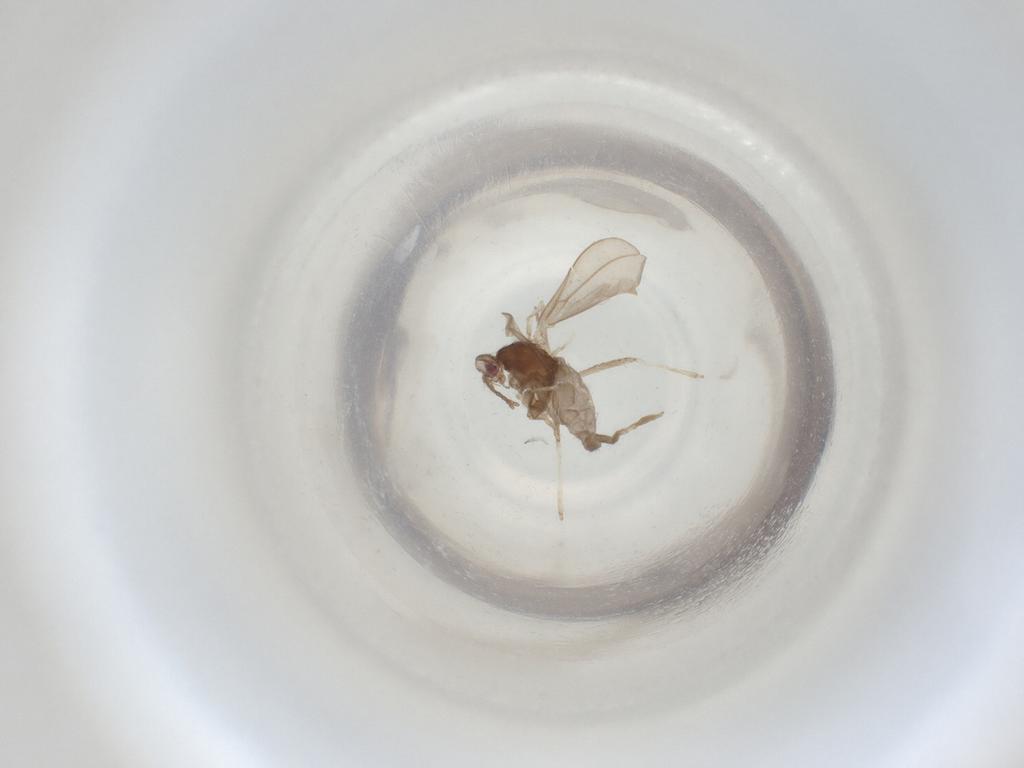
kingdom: Animalia
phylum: Arthropoda
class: Insecta
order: Diptera
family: Cecidomyiidae
